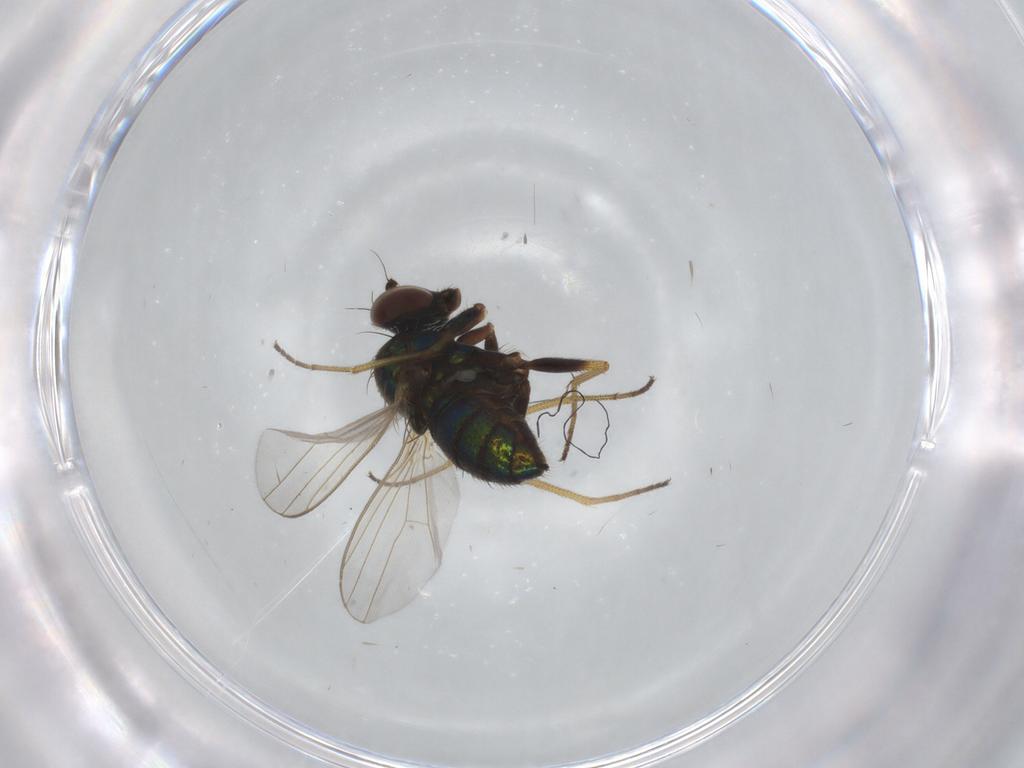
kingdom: Animalia
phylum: Arthropoda
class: Insecta
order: Diptera
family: Dolichopodidae
